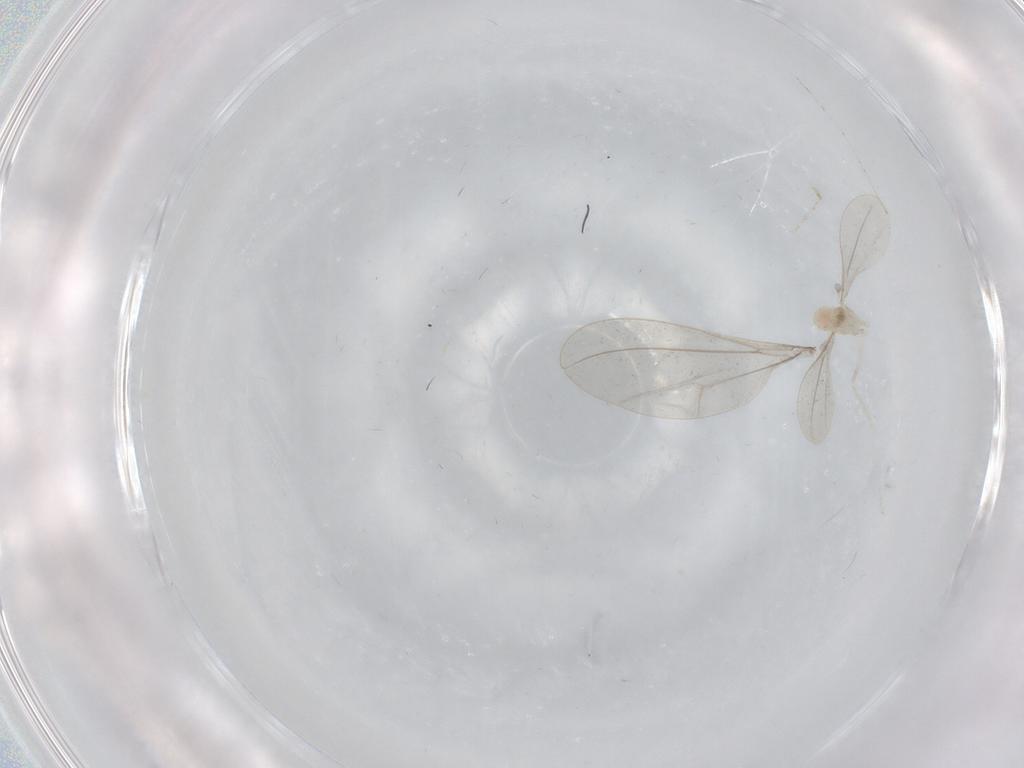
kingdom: Animalia
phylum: Arthropoda
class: Insecta
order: Diptera
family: Cecidomyiidae
